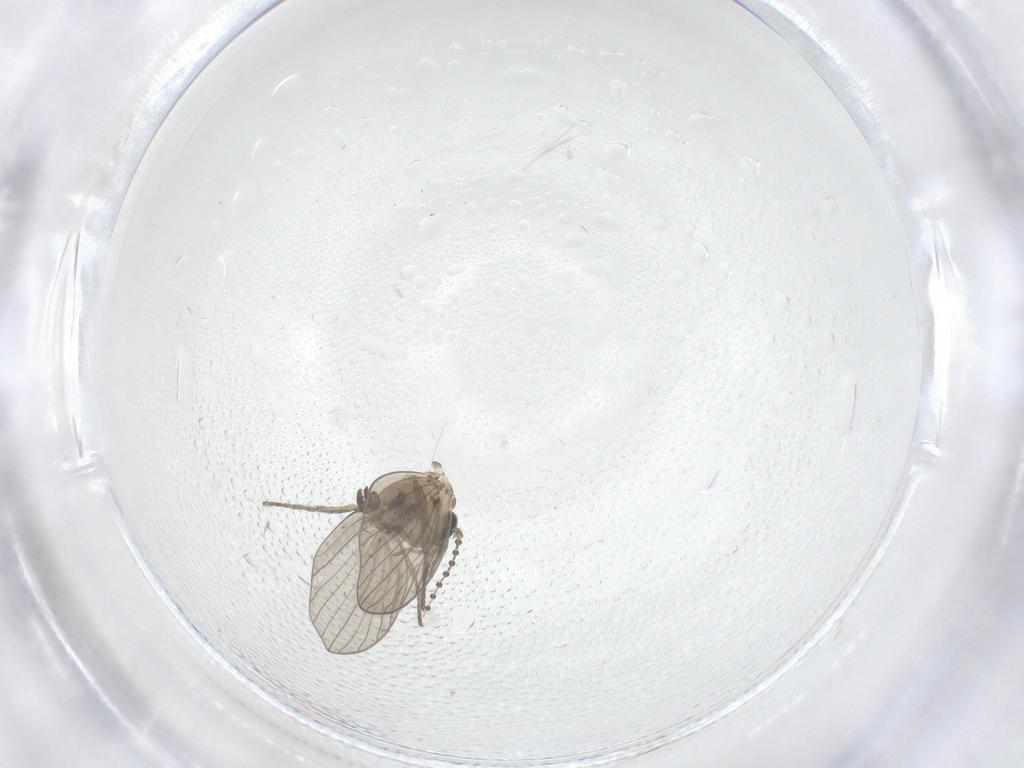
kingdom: Animalia
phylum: Arthropoda
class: Insecta
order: Diptera
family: Psychodidae
